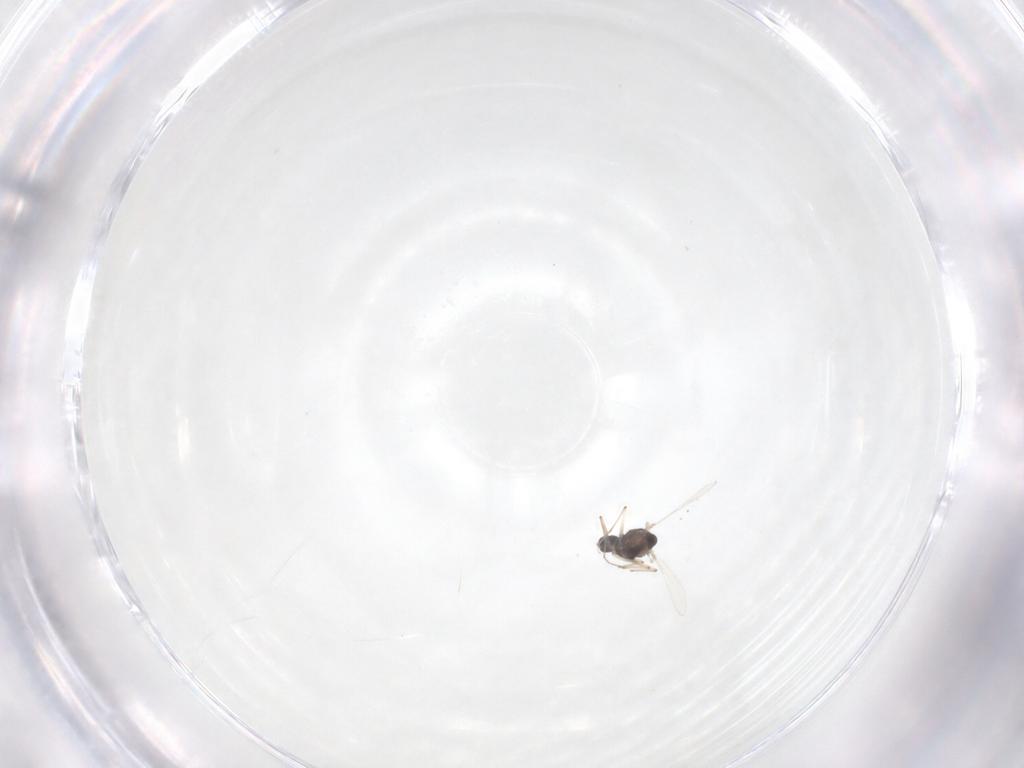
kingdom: Animalia
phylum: Arthropoda
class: Insecta
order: Diptera
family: Chironomidae
